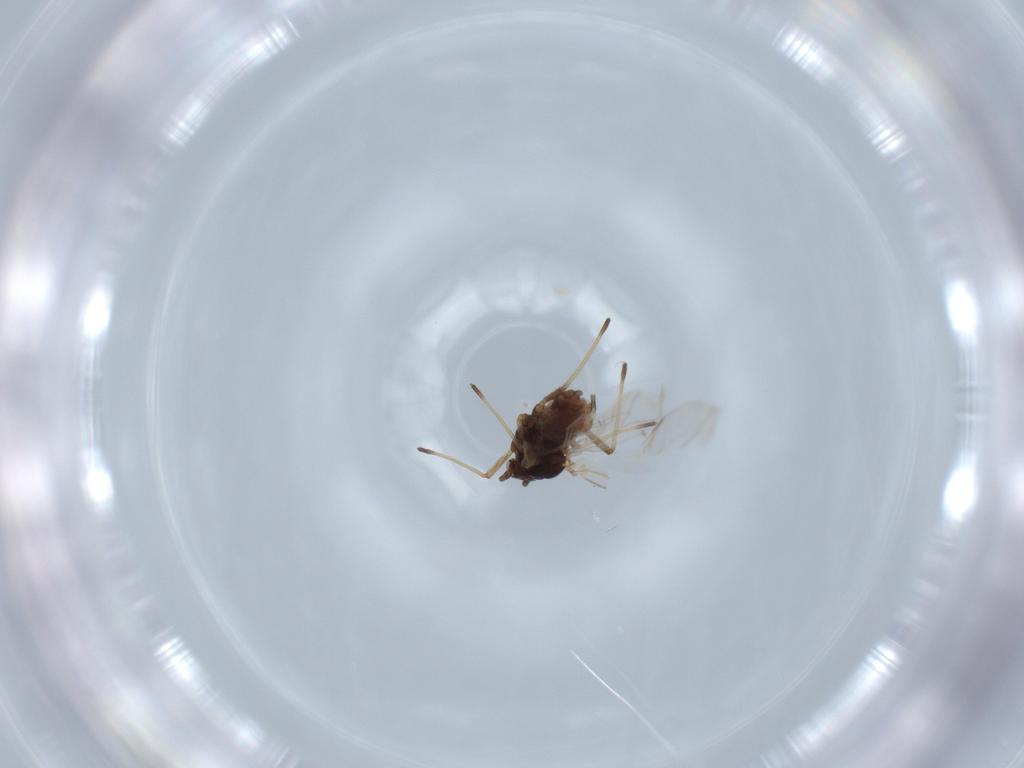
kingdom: Animalia
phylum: Arthropoda
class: Insecta
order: Hemiptera
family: Aphididae
